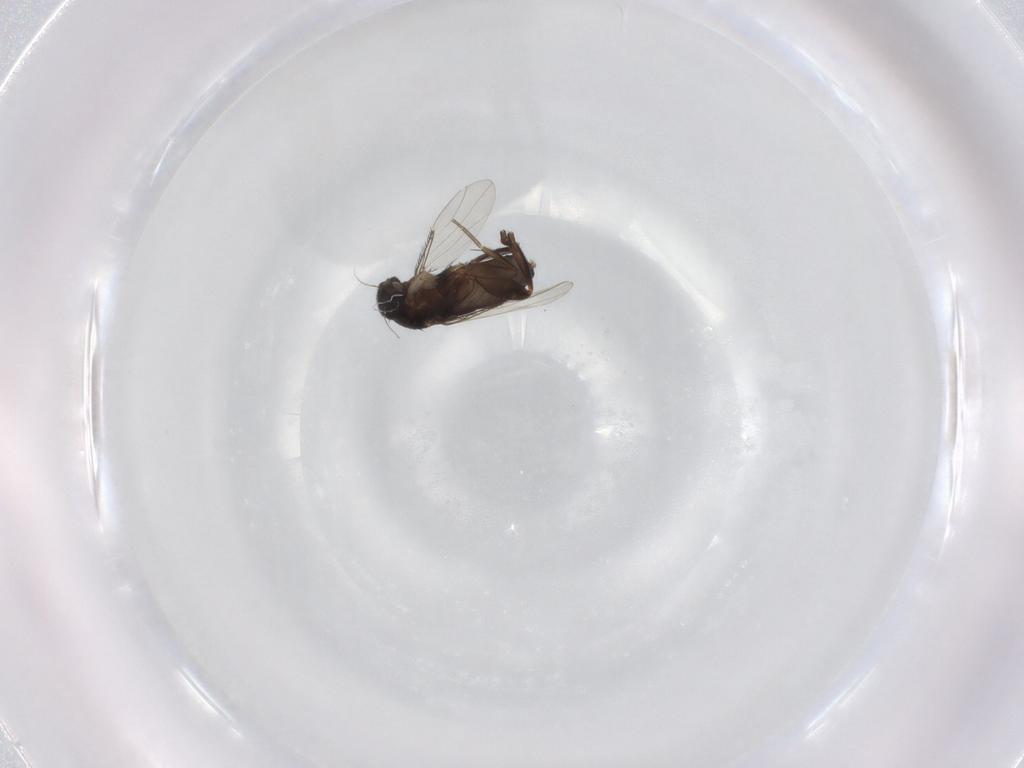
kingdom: Animalia
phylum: Arthropoda
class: Insecta
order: Diptera
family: Phoridae
